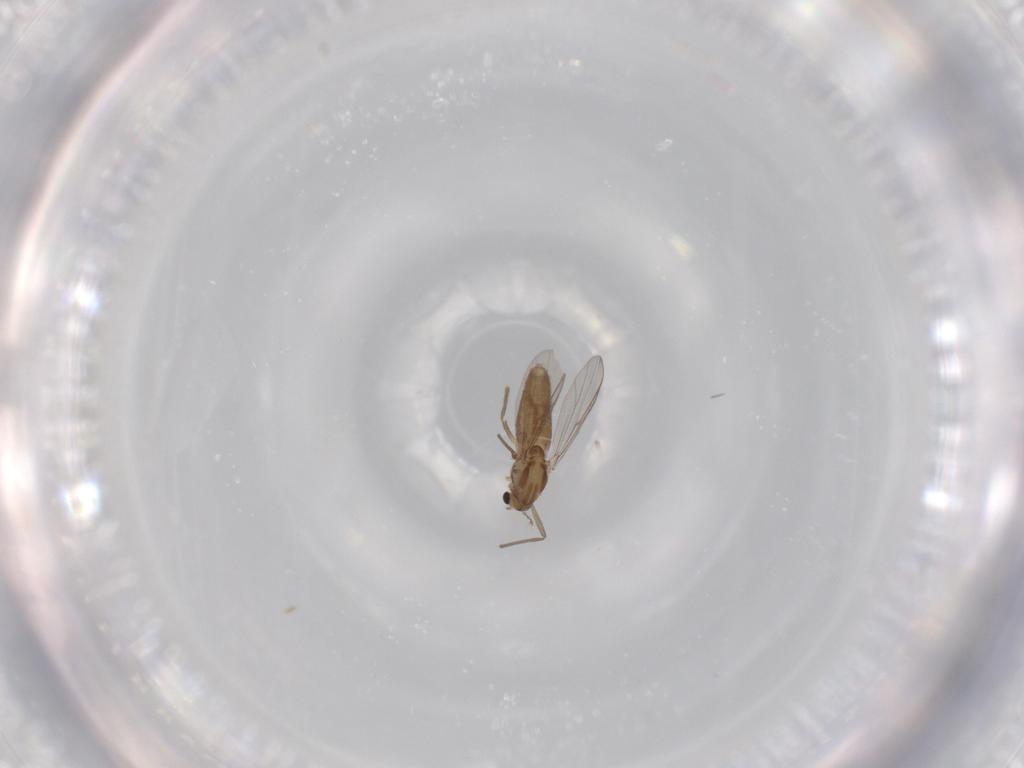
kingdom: Animalia
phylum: Arthropoda
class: Insecta
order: Diptera
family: Chironomidae
